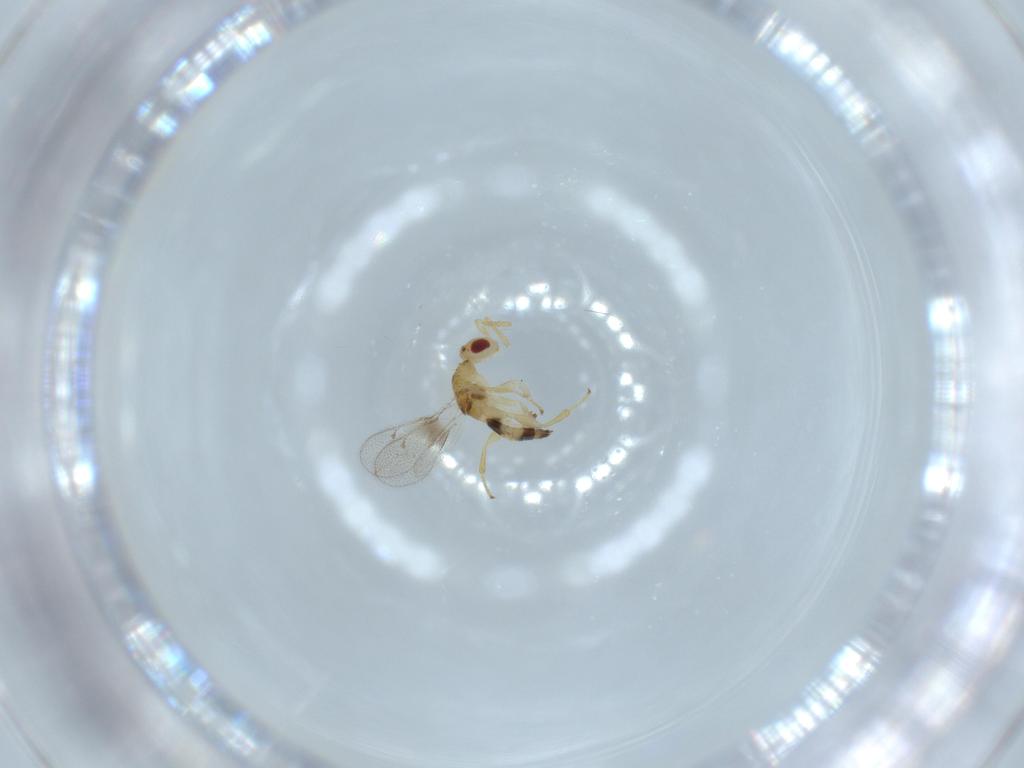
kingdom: Animalia
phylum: Arthropoda
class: Insecta
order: Hymenoptera
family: Torymidae
